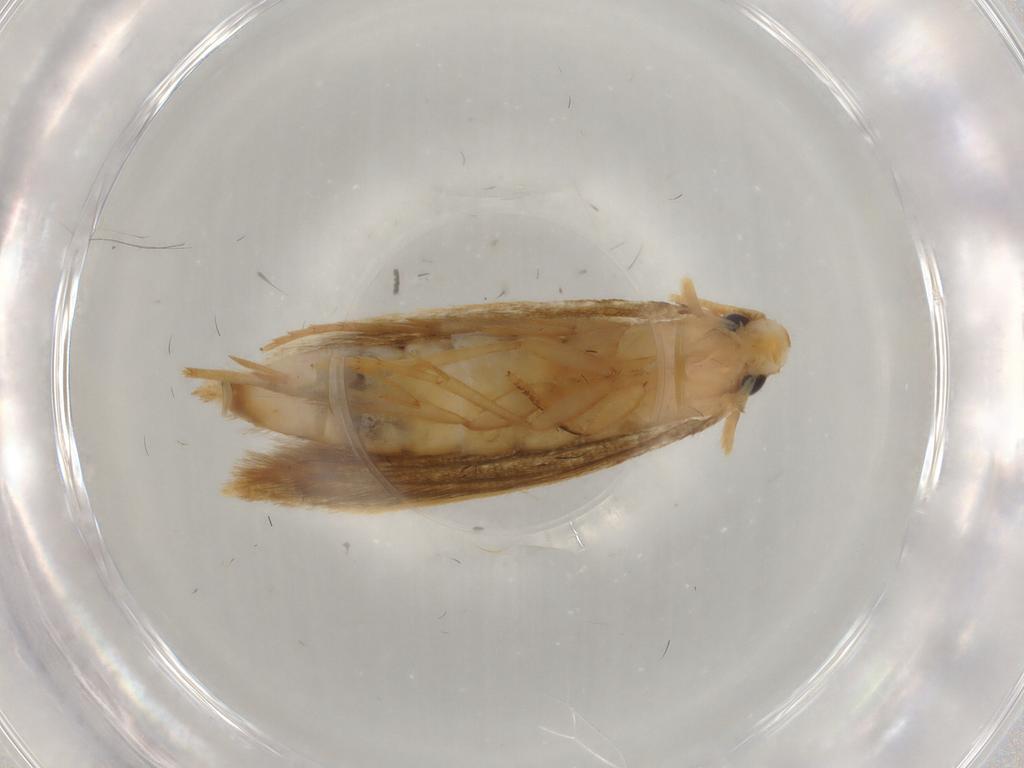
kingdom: Animalia
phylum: Arthropoda
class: Insecta
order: Lepidoptera
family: Tineidae
